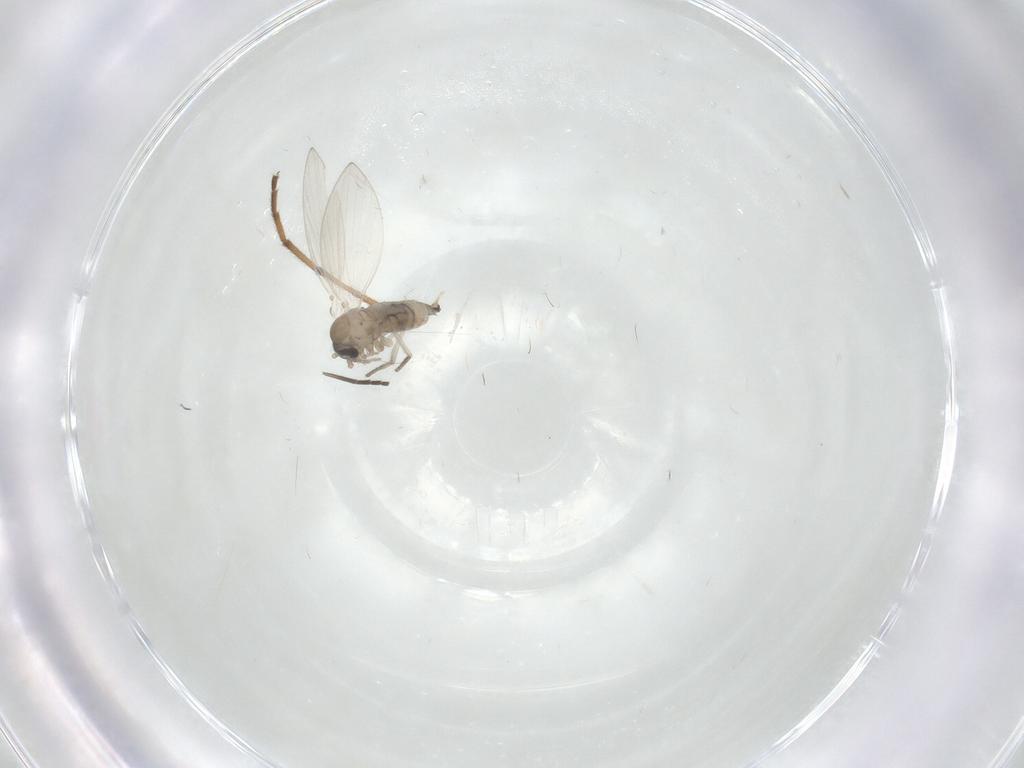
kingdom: Animalia
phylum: Arthropoda
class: Insecta
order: Diptera
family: Psychodidae
